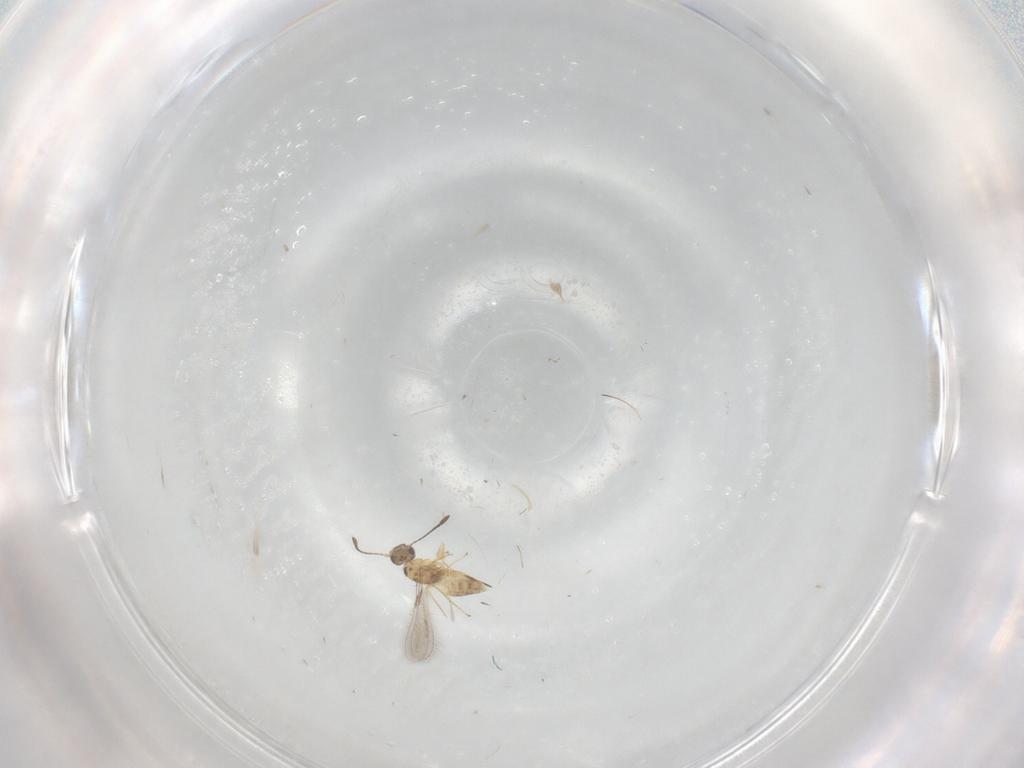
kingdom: Animalia
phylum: Arthropoda
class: Insecta
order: Hymenoptera
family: Mymaridae
